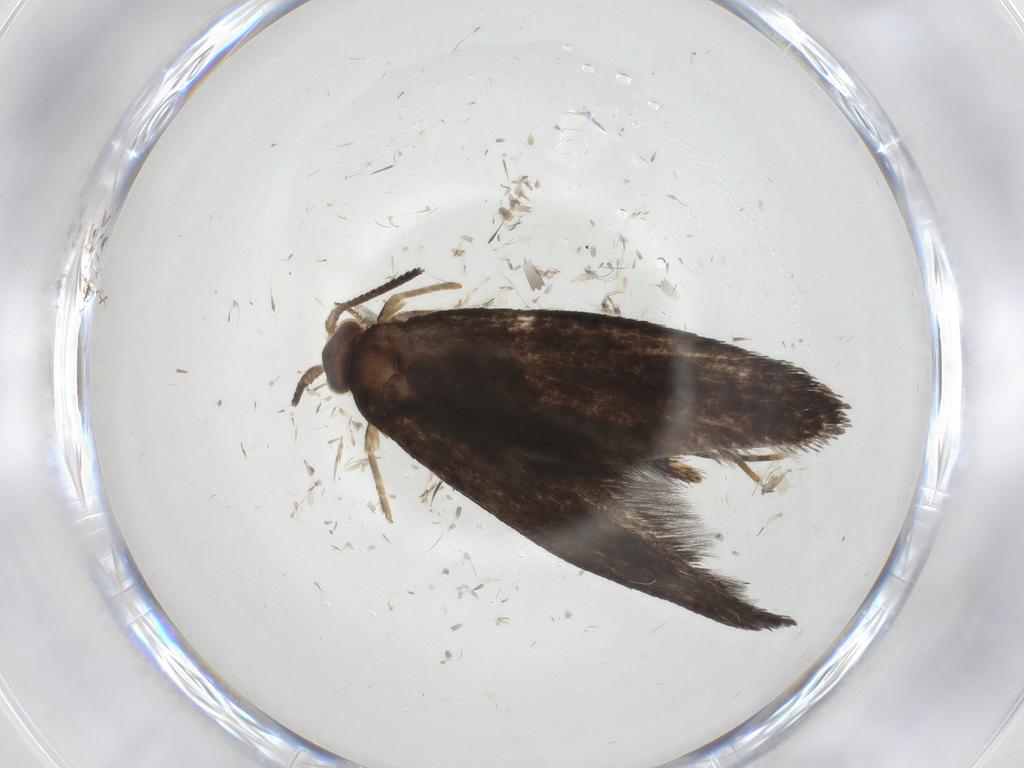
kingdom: Animalia
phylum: Arthropoda
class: Insecta
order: Lepidoptera
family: Tineidae
